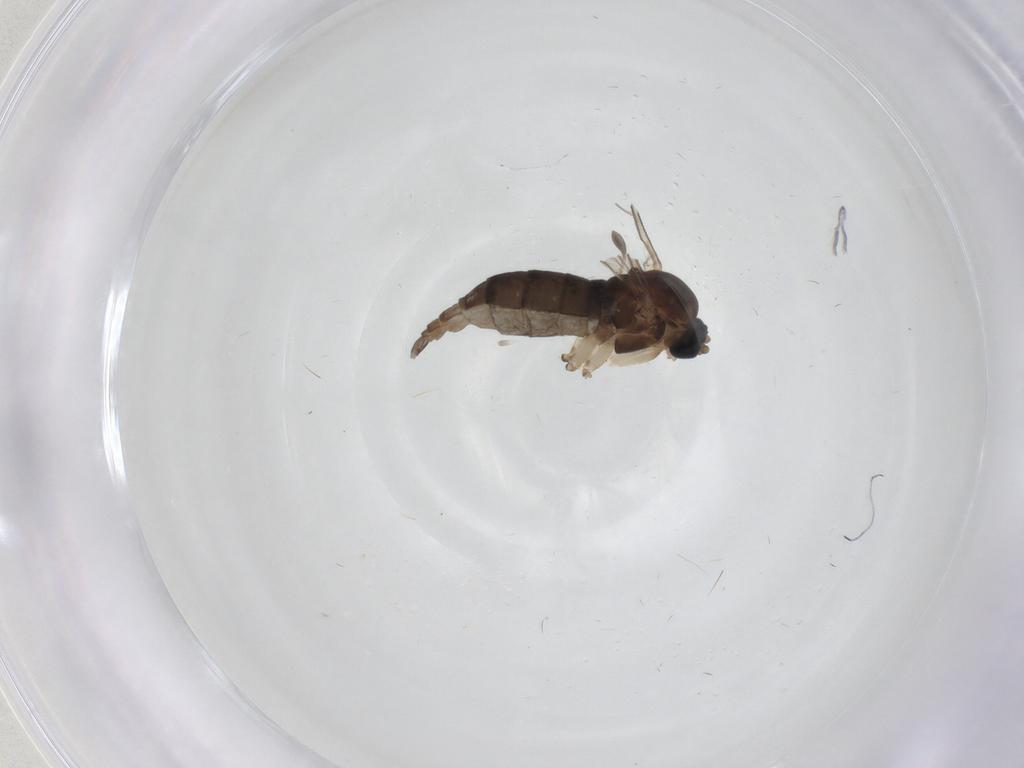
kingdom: Animalia
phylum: Arthropoda
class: Insecta
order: Diptera
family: Sciaridae
